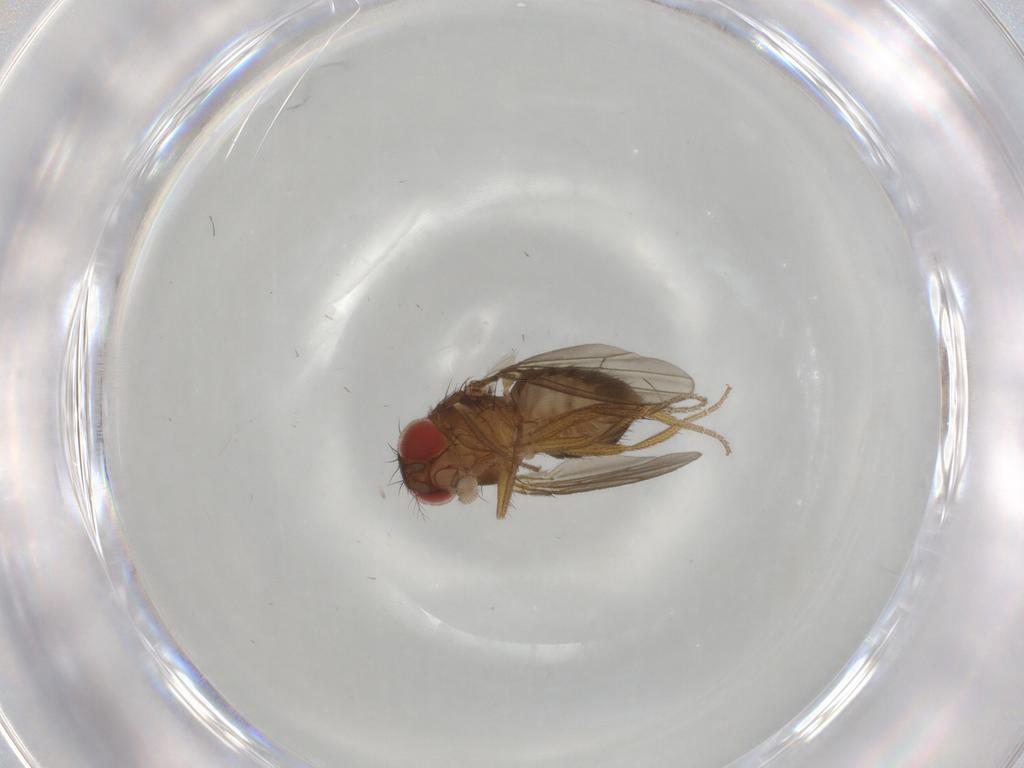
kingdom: Animalia
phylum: Arthropoda
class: Insecta
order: Diptera
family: Drosophilidae
